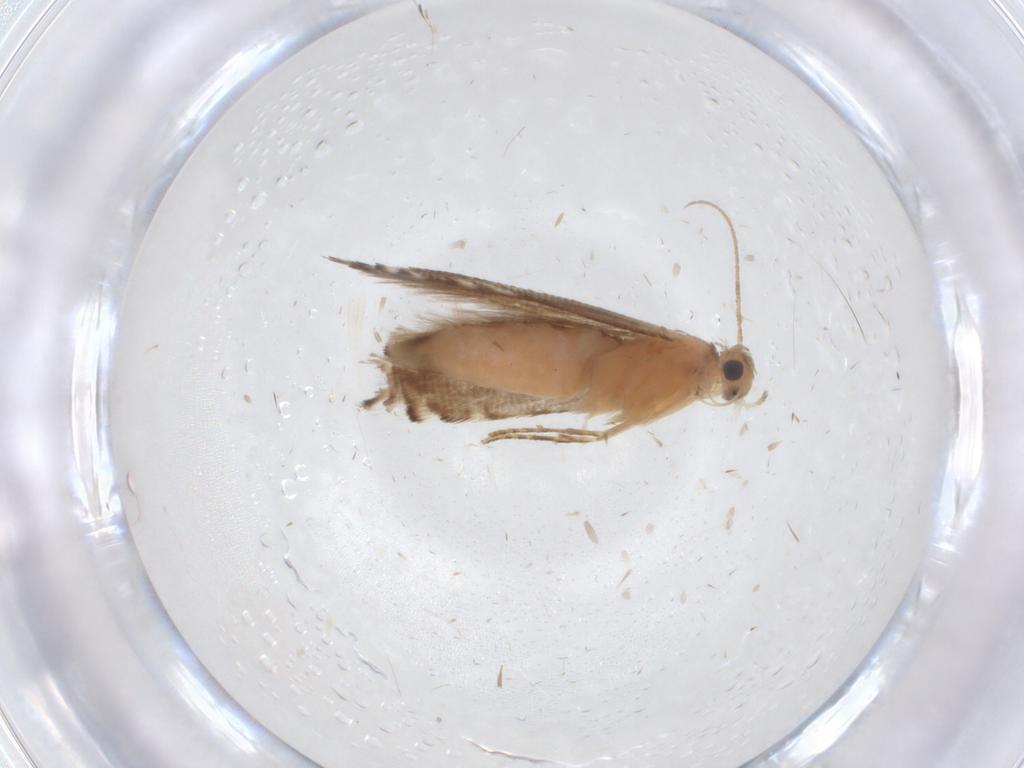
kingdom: Animalia
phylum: Arthropoda
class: Insecta
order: Lepidoptera
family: Glyphipterigidae
